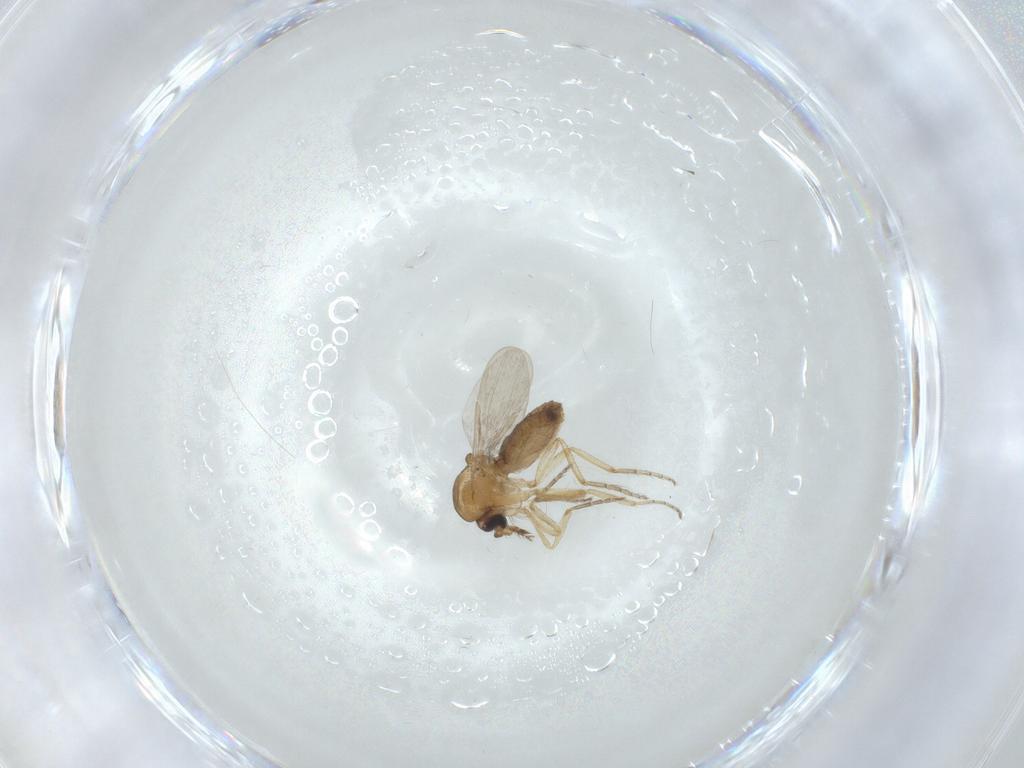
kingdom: Animalia
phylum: Arthropoda
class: Insecta
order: Diptera
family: Ceratopogonidae
